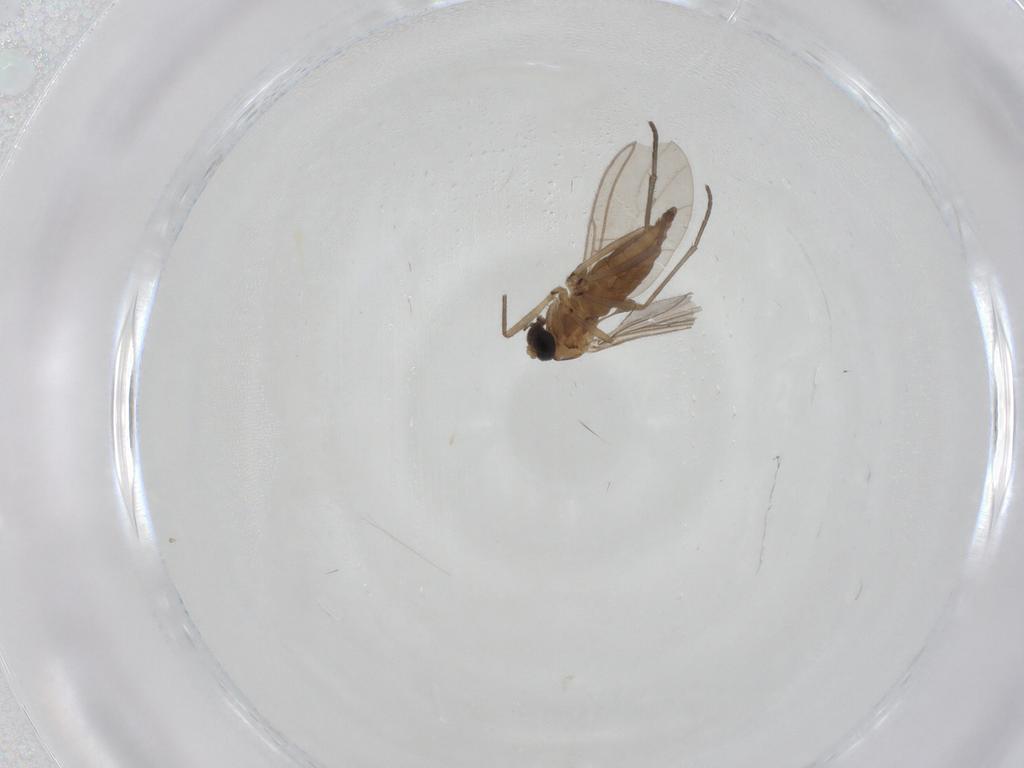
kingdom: Animalia
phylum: Arthropoda
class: Insecta
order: Diptera
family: Sciaridae
